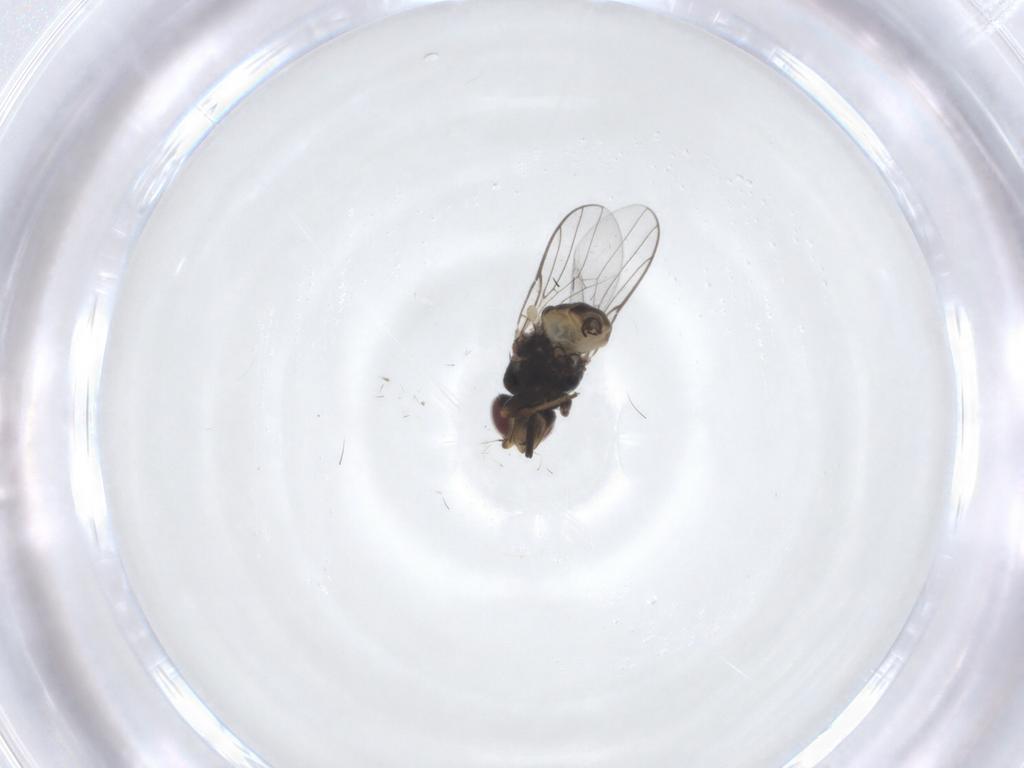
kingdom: Animalia
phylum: Arthropoda
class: Insecta
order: Diptera
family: Chloropidae
